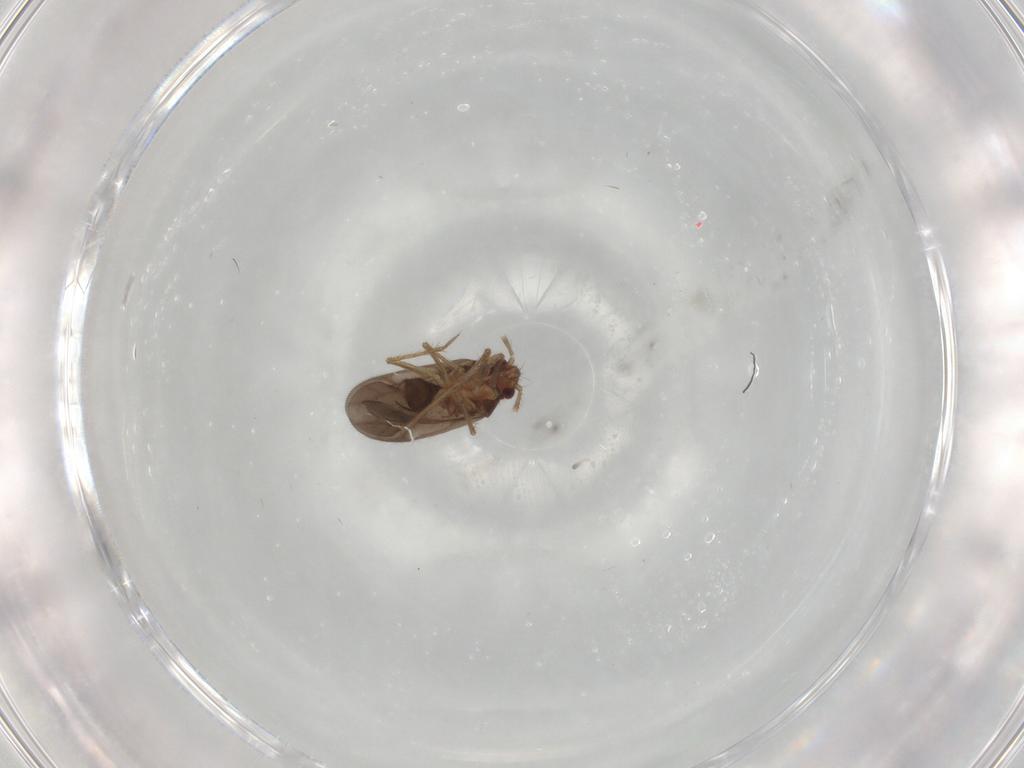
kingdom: Animalia
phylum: Arthropoda
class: Insecta
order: Hemiptera
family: Ceratocombidae
